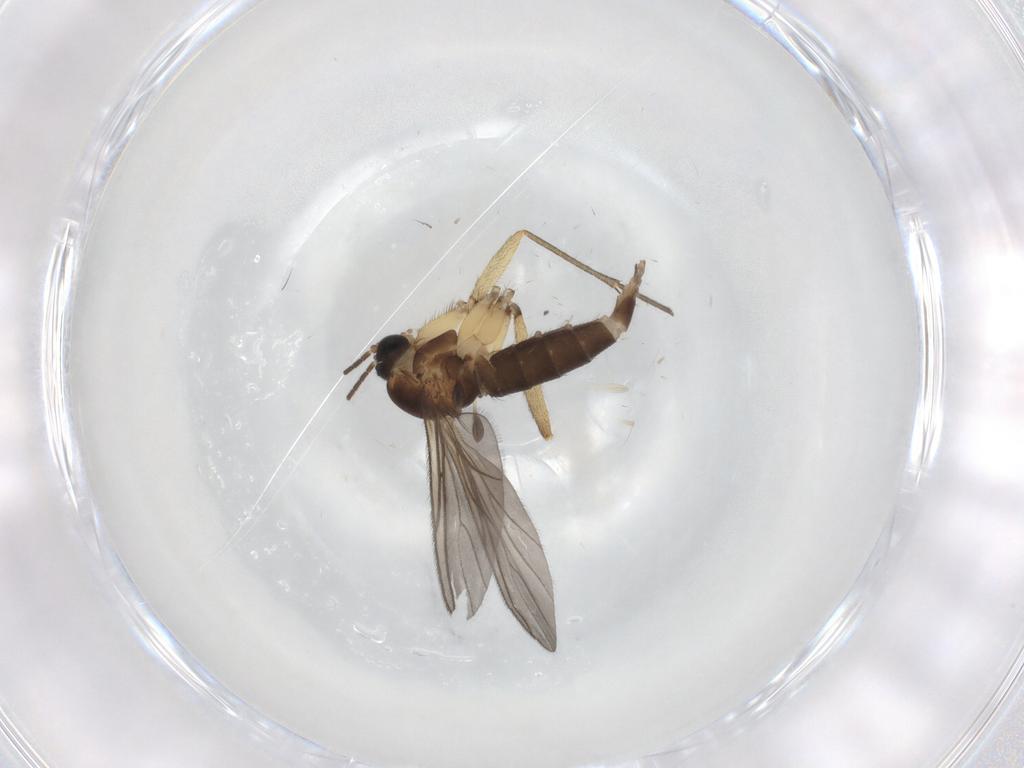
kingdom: Animalia
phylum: Arthropoda
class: Insecta
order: Diptera
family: Sciaridae
